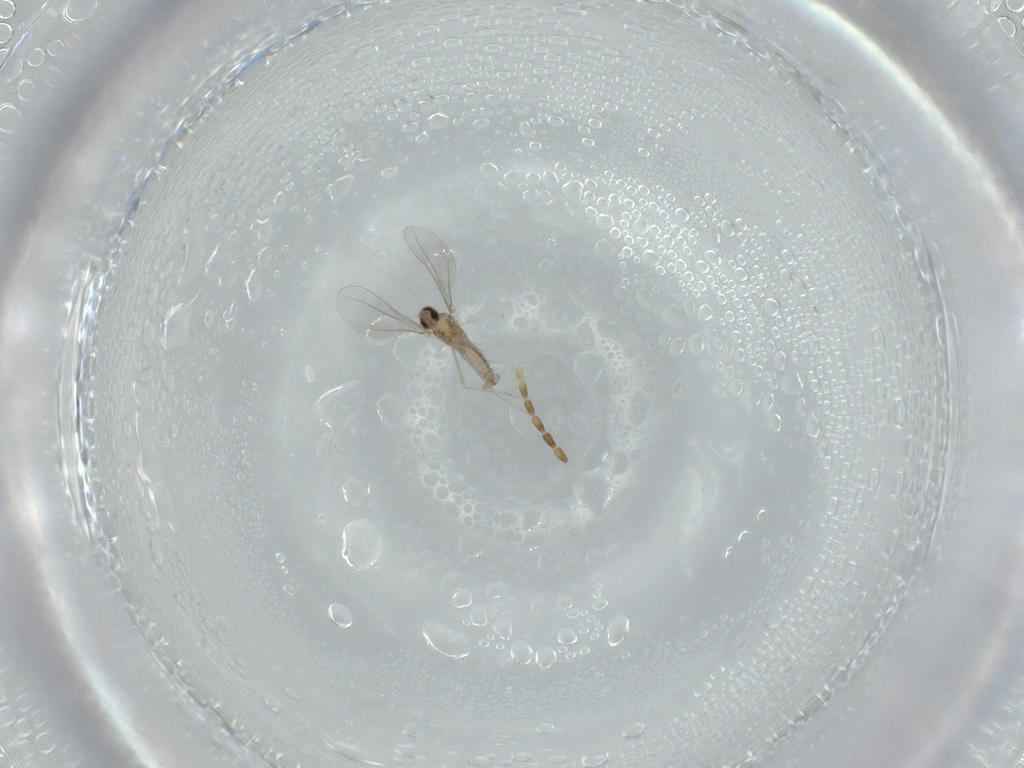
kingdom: Animalia
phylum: Arthropoda
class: Insecta
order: Diptera
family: Cecidomyiidae
